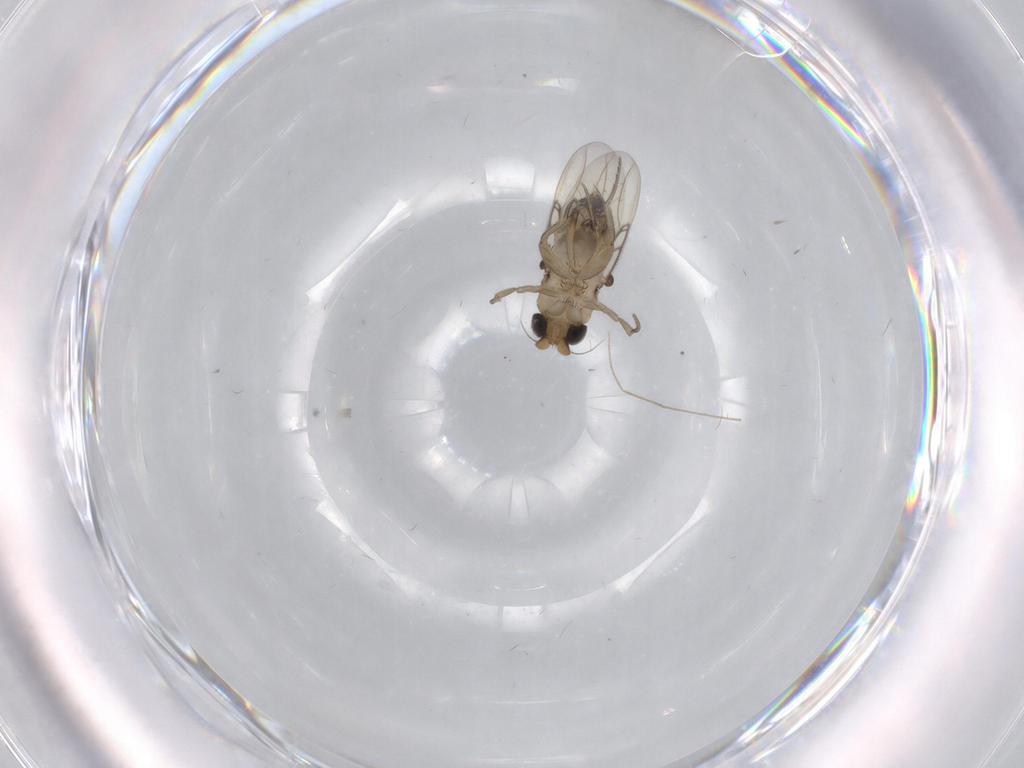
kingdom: Animalia
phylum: Arthropoda
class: Insecta
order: Diptera
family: Phoridae
